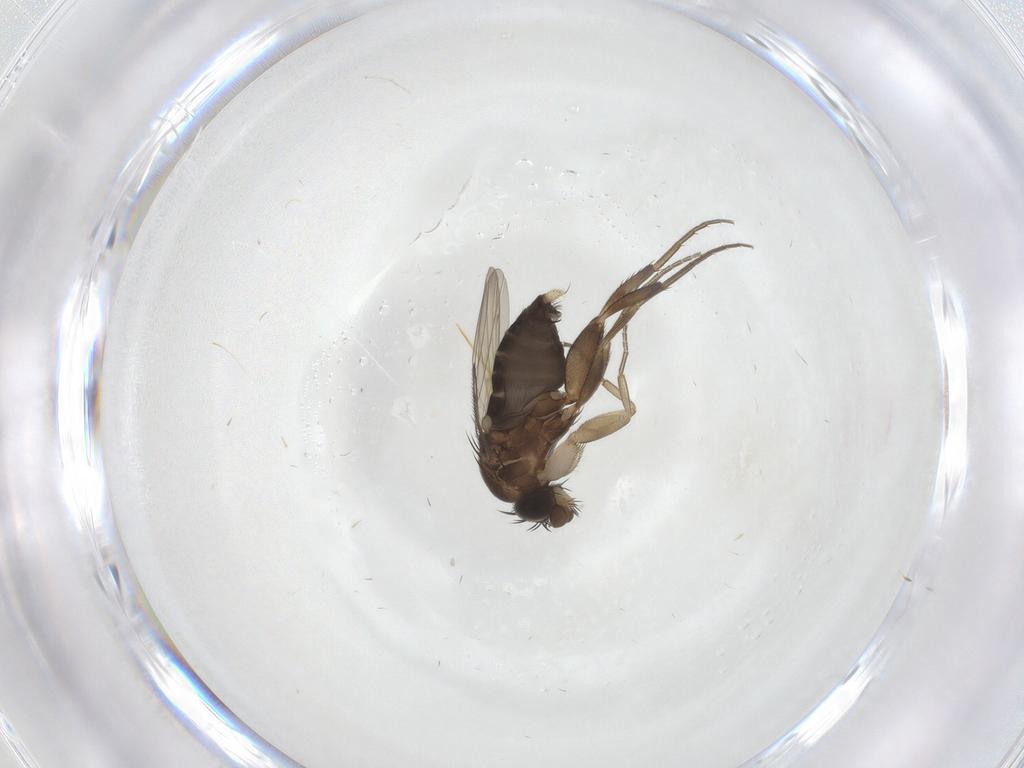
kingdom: Animalia
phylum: Arthropoda
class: Insecta
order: Diptera
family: Phoridae
